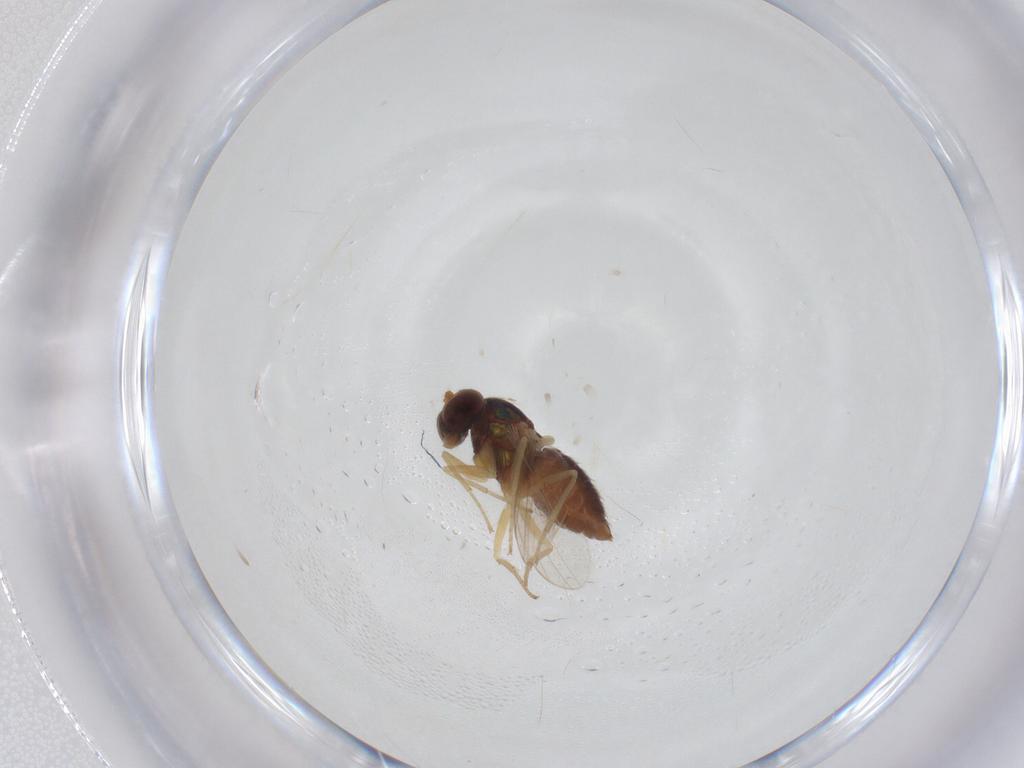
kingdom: Animalia
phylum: Arthropoda
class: Insecta
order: Diptera
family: Dolichopodidae
